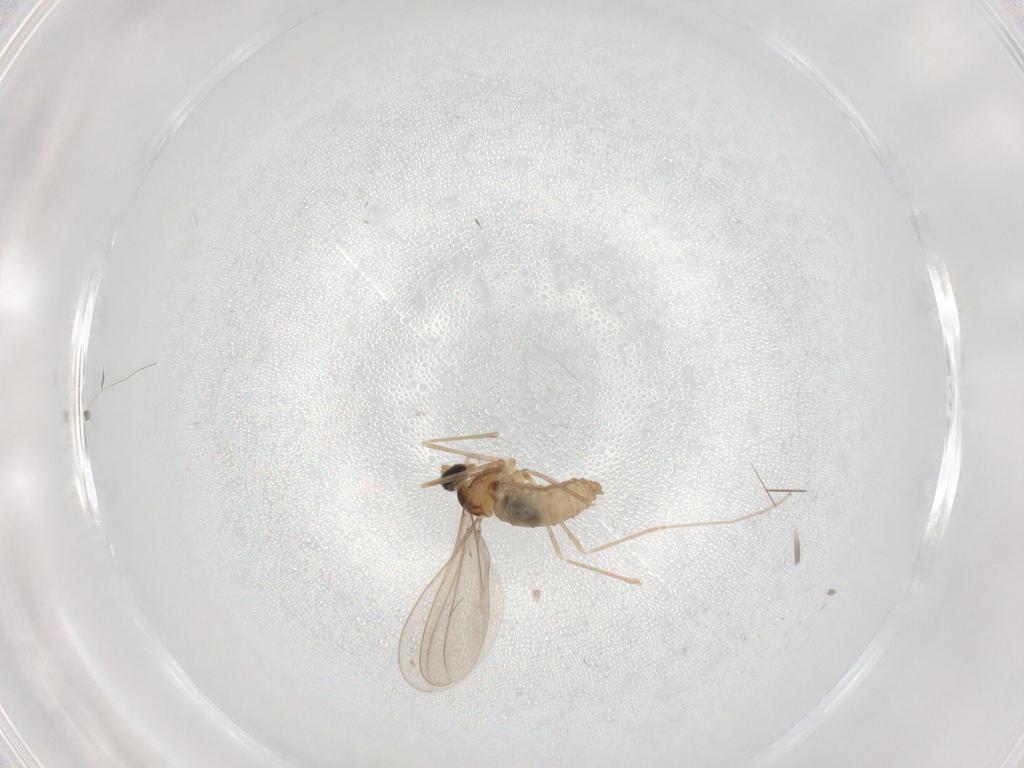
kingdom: Animalia
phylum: Arthropoda
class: Insecta
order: Diptera
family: Cecidomyiidae
